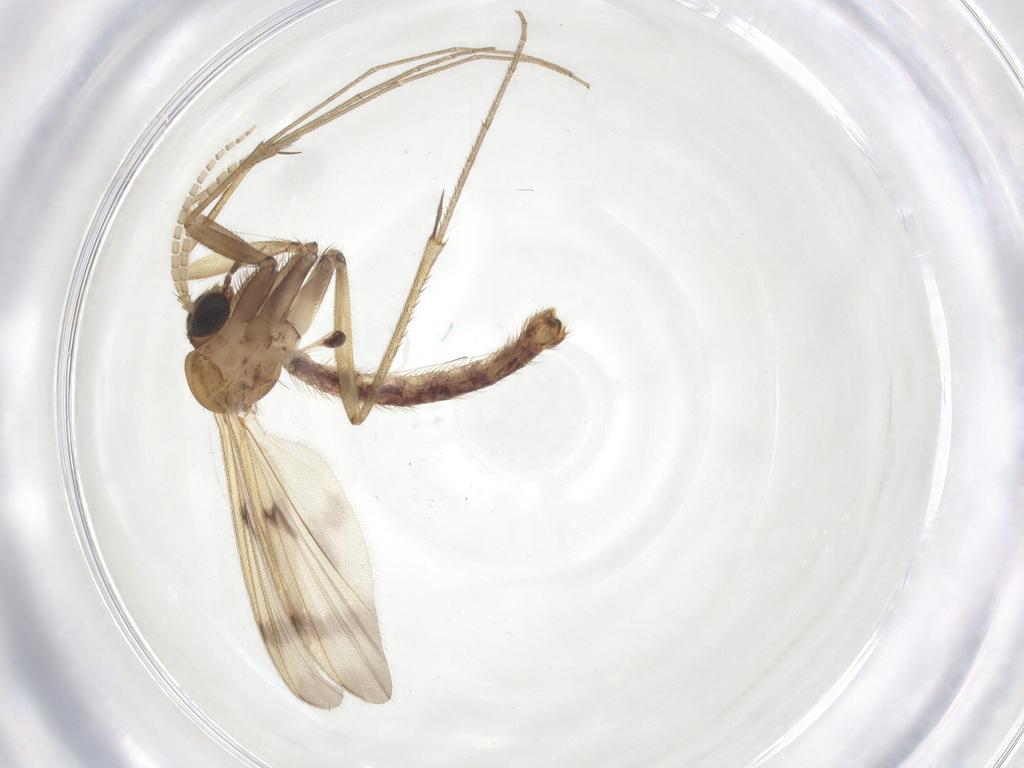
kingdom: Animalia
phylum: Arthropoda
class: Insecta
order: Diptera
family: Mycetophilidae
